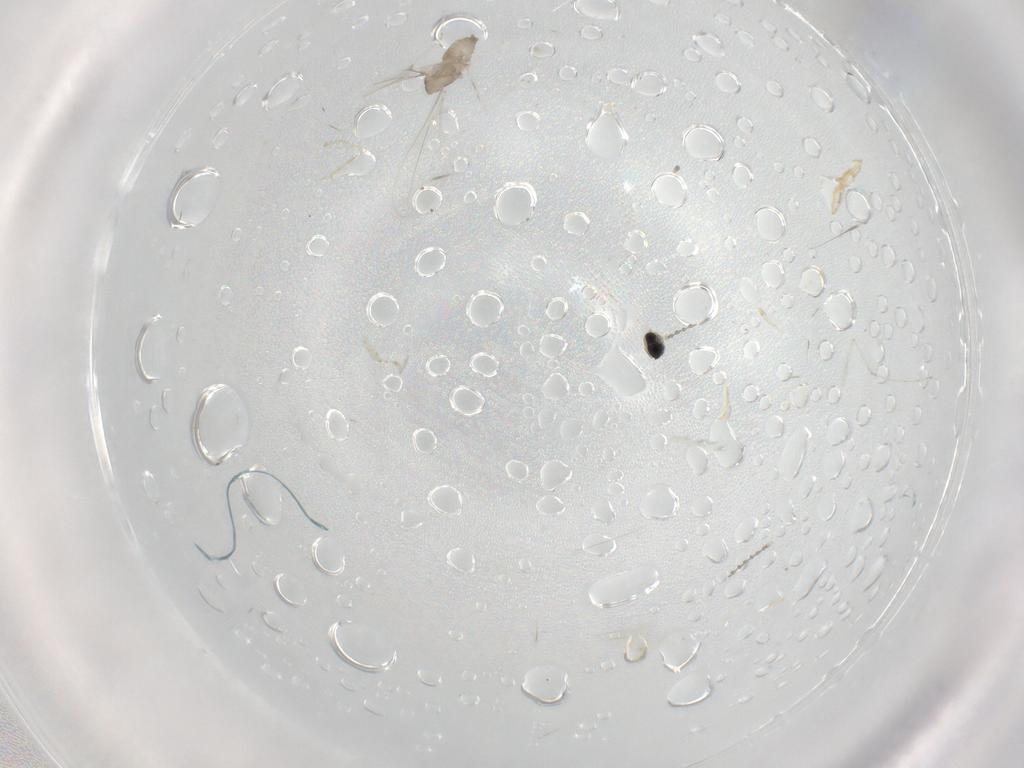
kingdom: Animalia
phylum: Arthropoda
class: Insecta
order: Diptera
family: Cecidomyiidae
